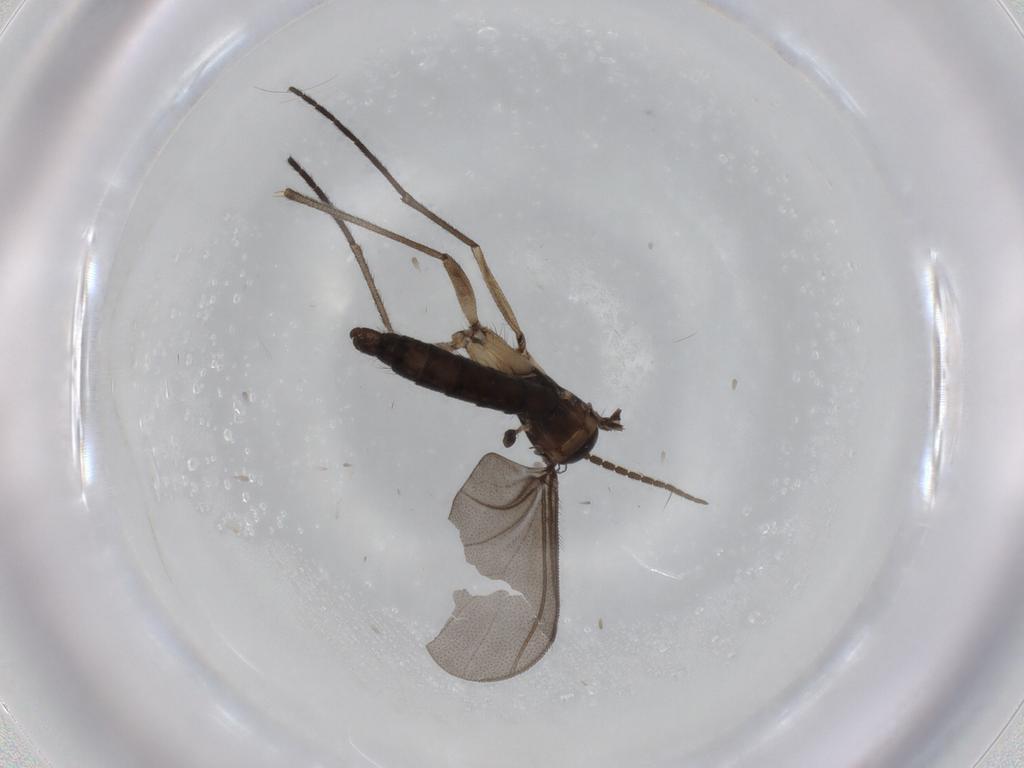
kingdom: Animalia
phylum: Arthropoda
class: Insecta
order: Diptera
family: Sciaridae
